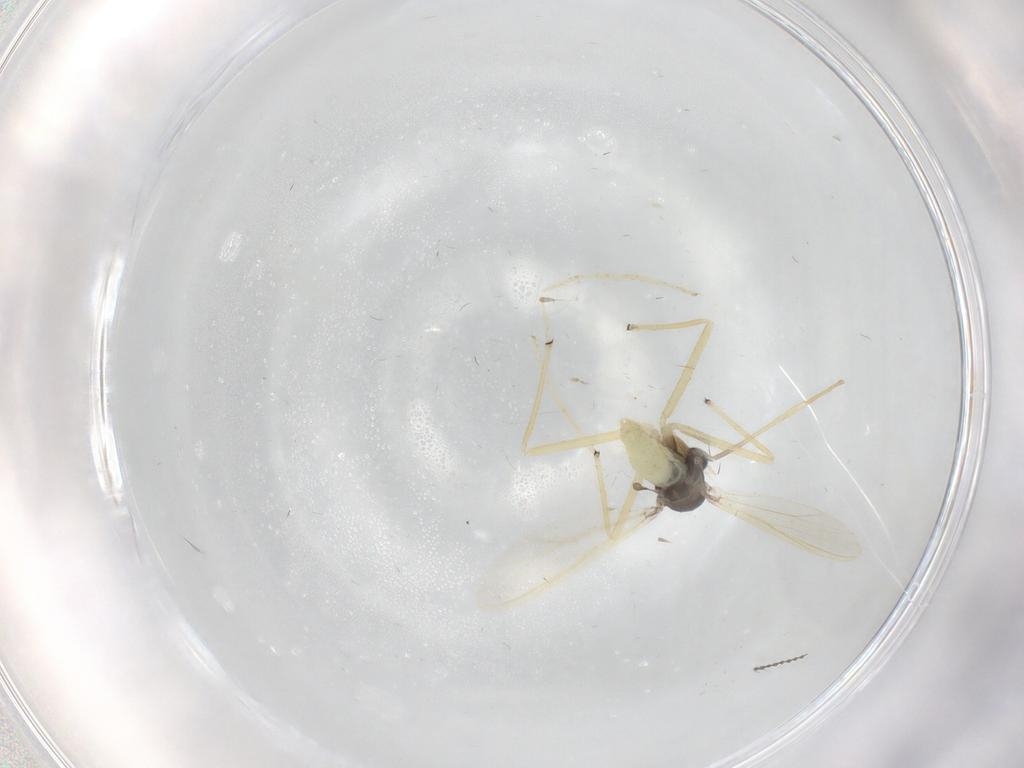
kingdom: Animalia
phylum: Arthropoda
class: Insecta
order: Diptera
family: Chironomidae
